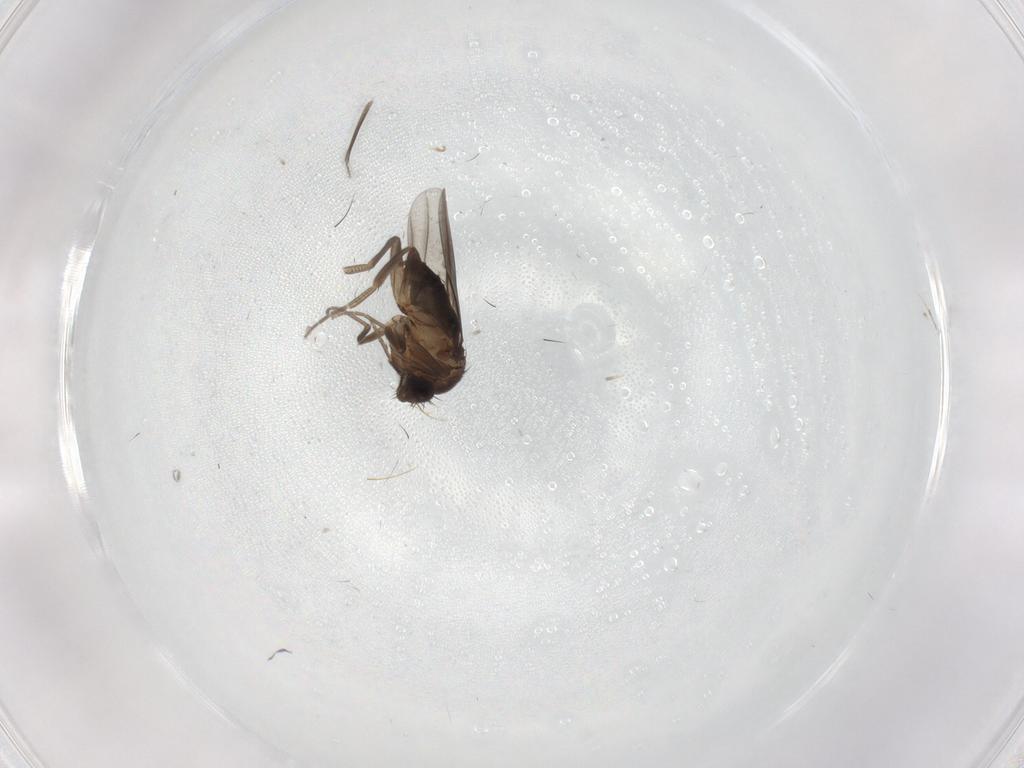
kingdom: Animalia
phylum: Arthropoda
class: Insecta
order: Diptera
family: Phoridae
